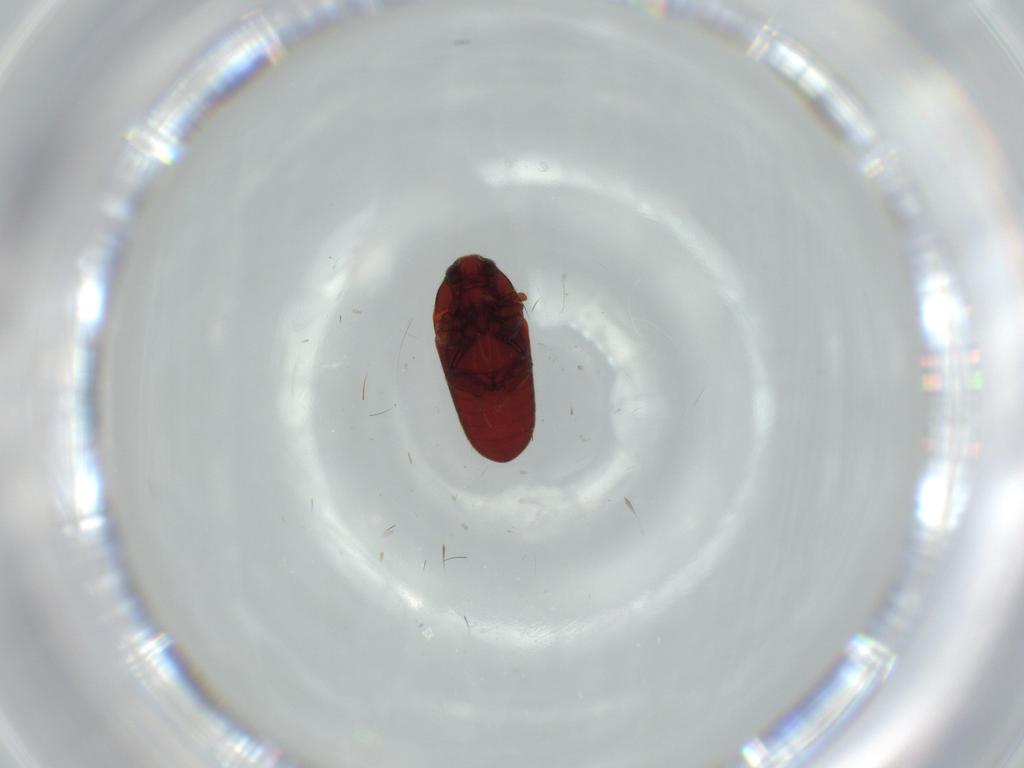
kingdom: Animalia
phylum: Arthropoda
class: Insecta
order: Coleoptera
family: Throscidae
